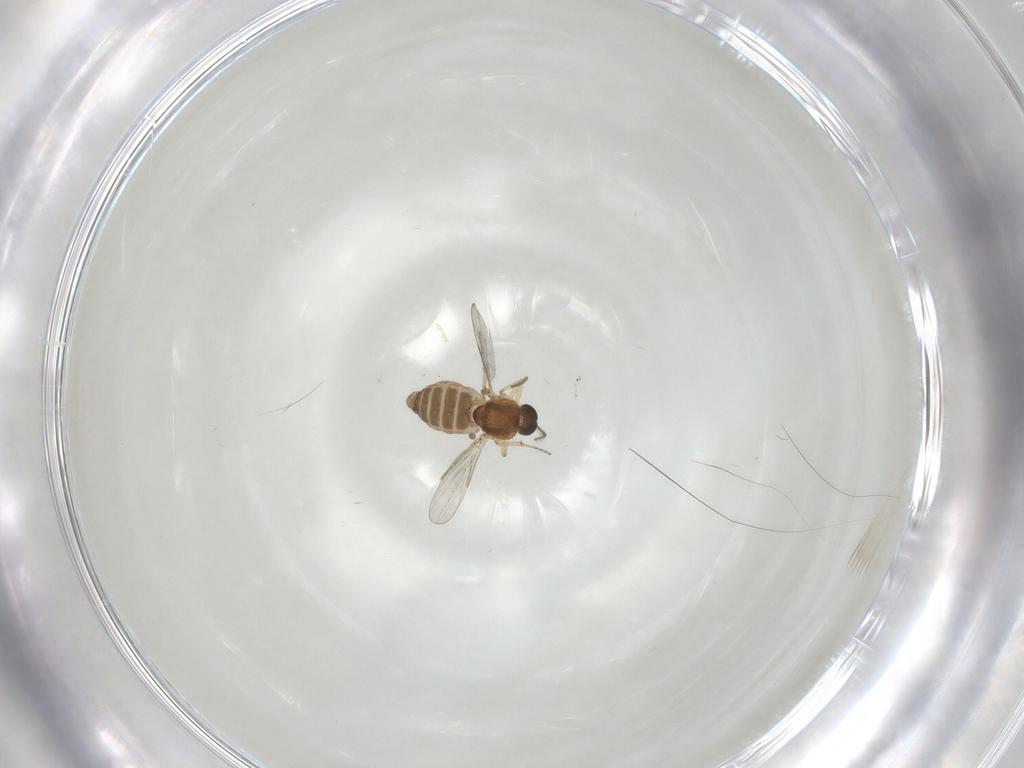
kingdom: Animalia
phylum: Arthropoda
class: Insecta
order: Diptera
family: Ceratopogonidae
